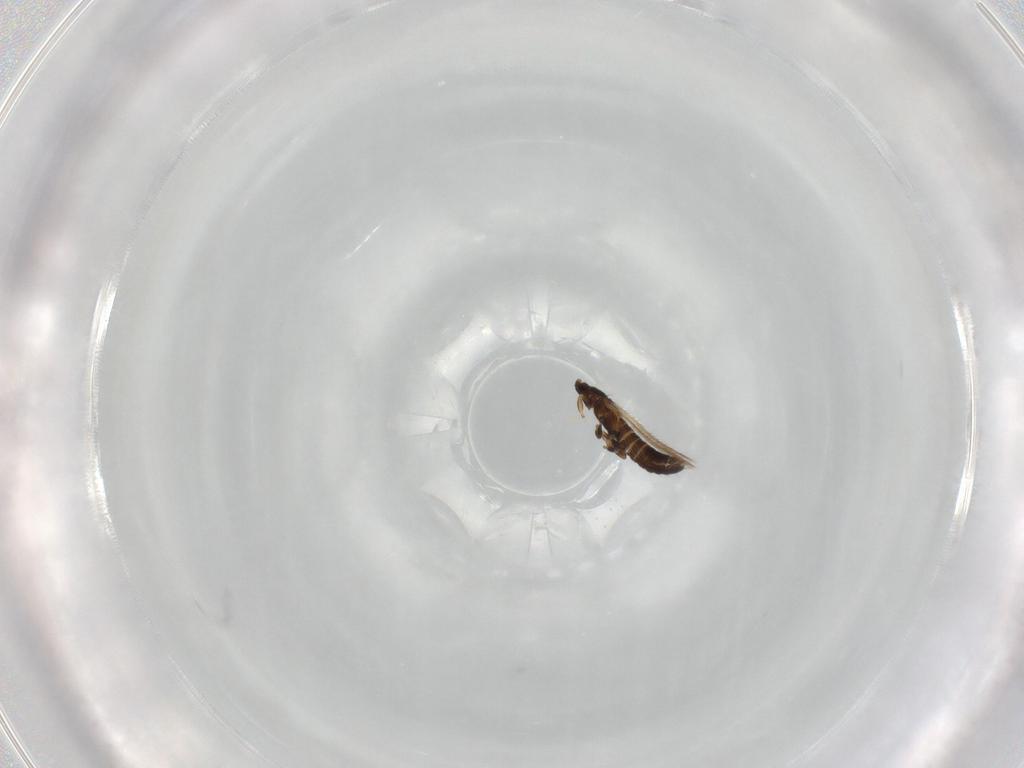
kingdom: Animalia
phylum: Arthropoda
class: Insecta
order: Thysanoptera
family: Thripidae
